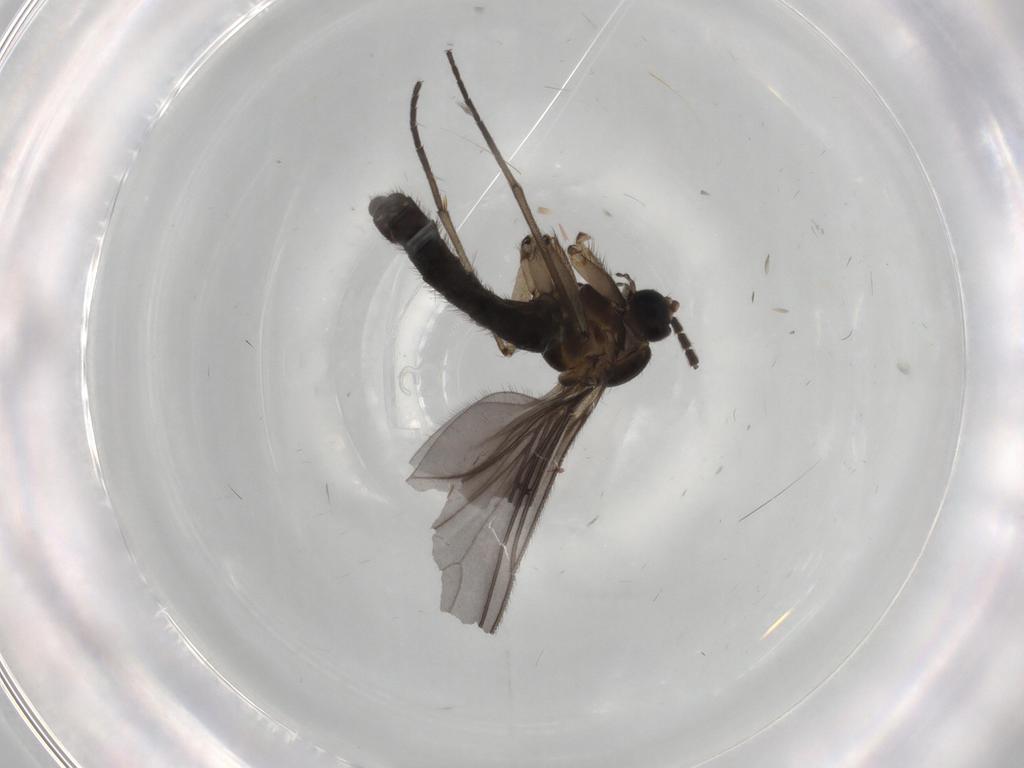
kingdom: Animalia
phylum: Arthropoda
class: Insecta
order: Diptera
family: Sciaridae
